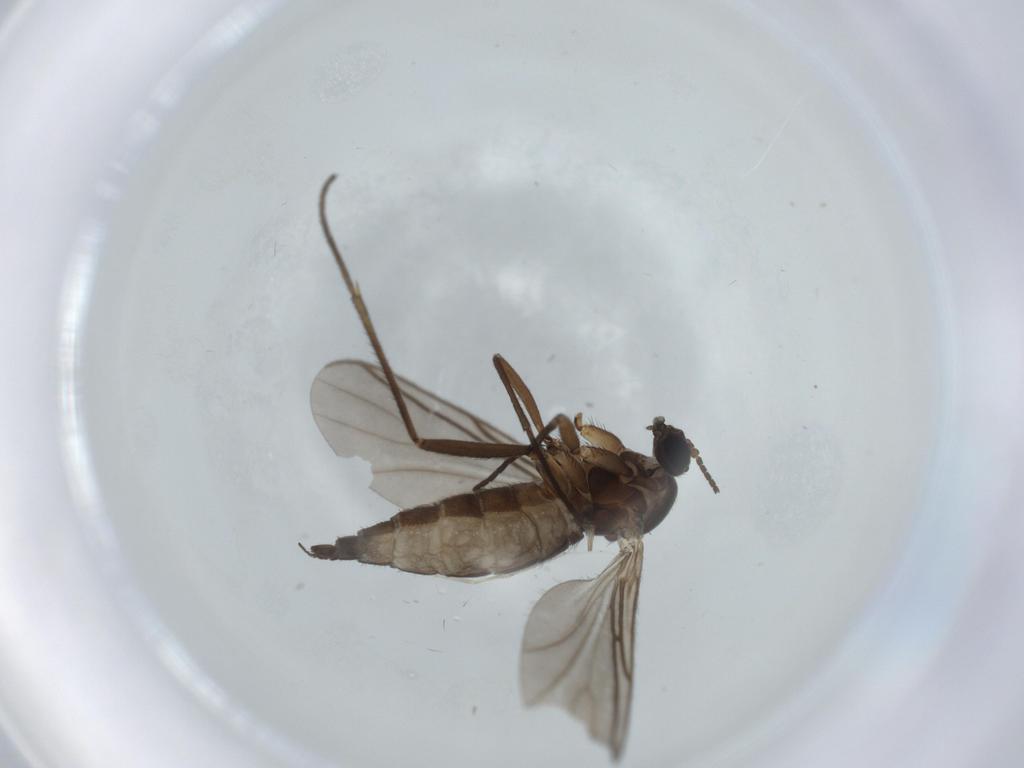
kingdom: Animalia
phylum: Arthropoda
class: Insecta
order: Diptera
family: Sciaridae
